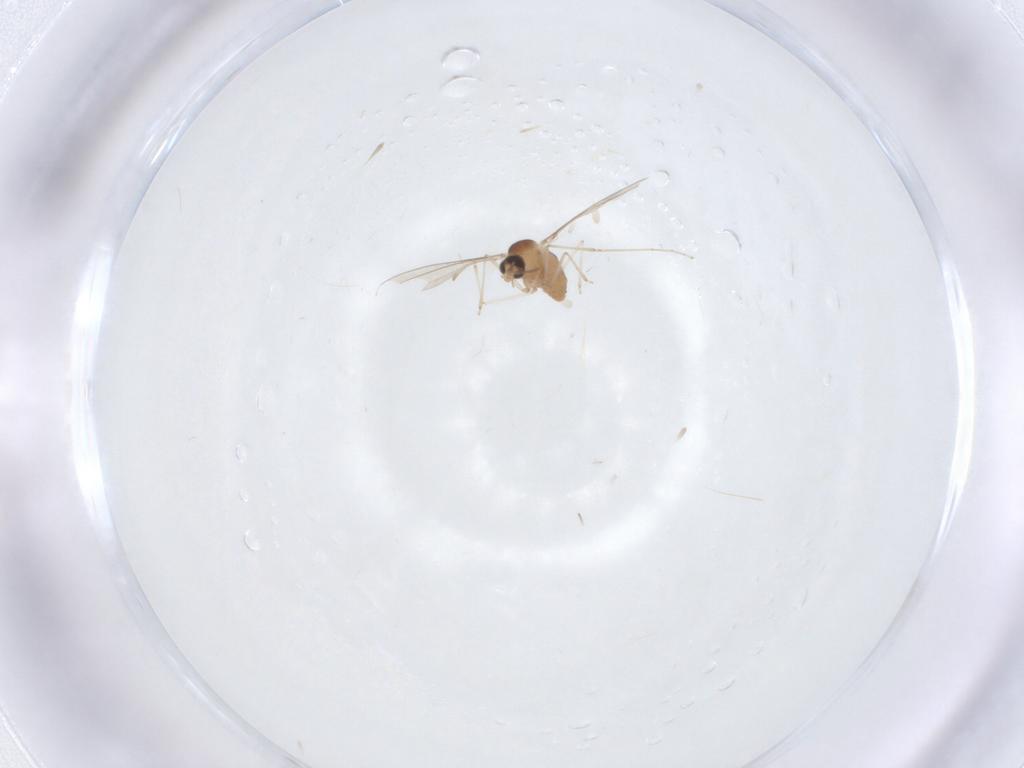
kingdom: Animalia
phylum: Arthropoda
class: Insecta
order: Diptera
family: Cecidomyiidae
